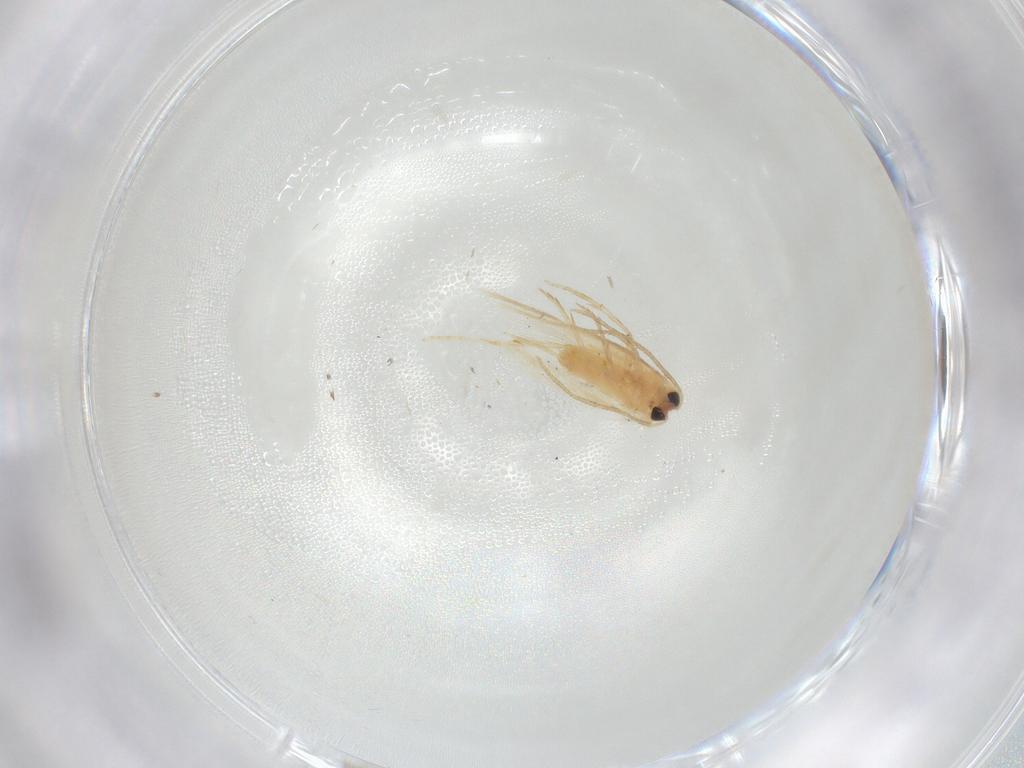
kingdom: Animalia
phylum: Arthropoda
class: Insecta
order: Lepidoptera
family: Nepticulidae
